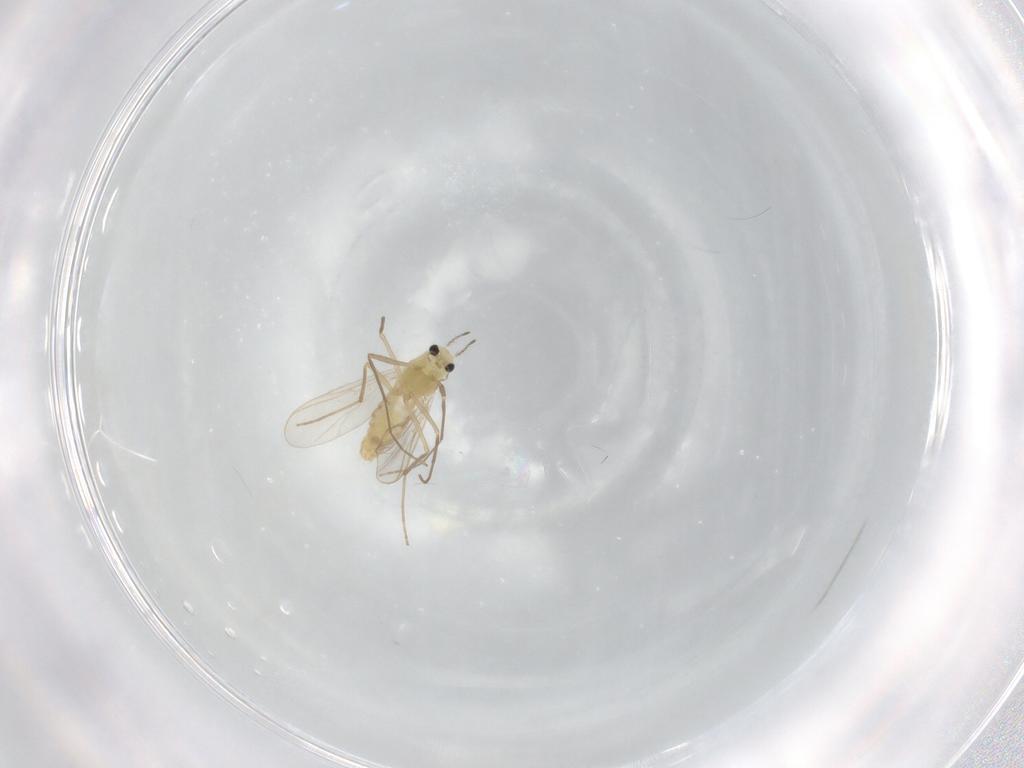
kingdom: Animalia
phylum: Arthropoda
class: Insecta
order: Diptera
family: Chironomidae
